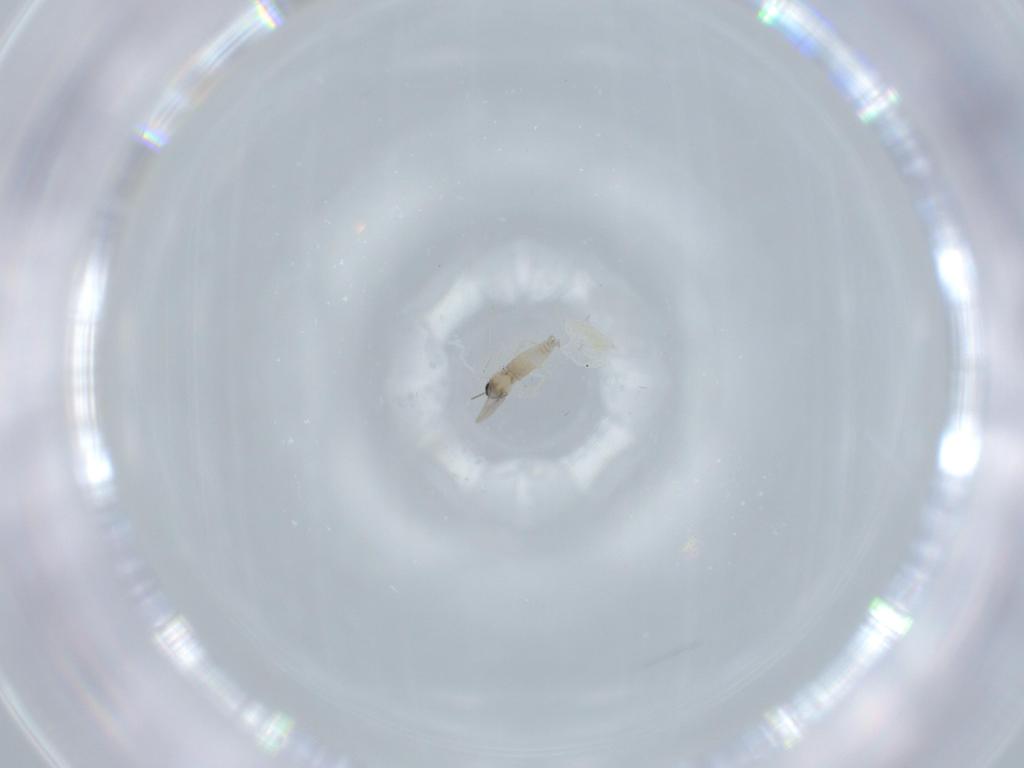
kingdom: Animalia
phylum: Arthropoda
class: Insecta
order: Diptera
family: Cecidomyiidae
